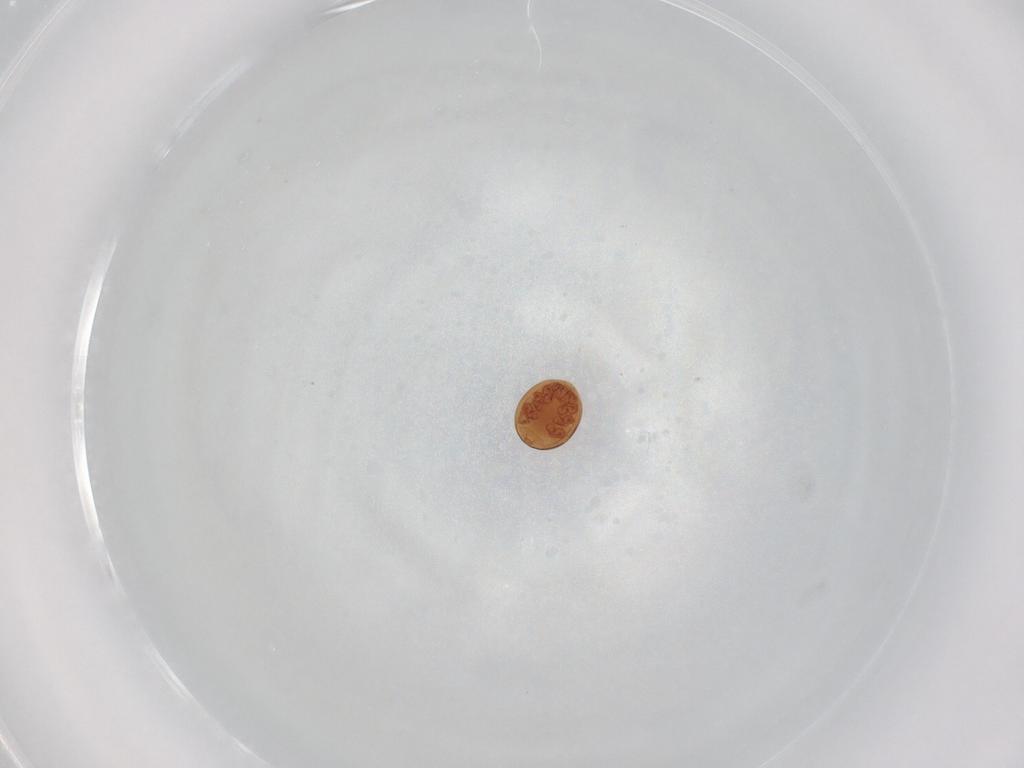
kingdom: Animalia
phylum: Arthropoda
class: Arachnida
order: Mesostigmata
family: Uropodidae
